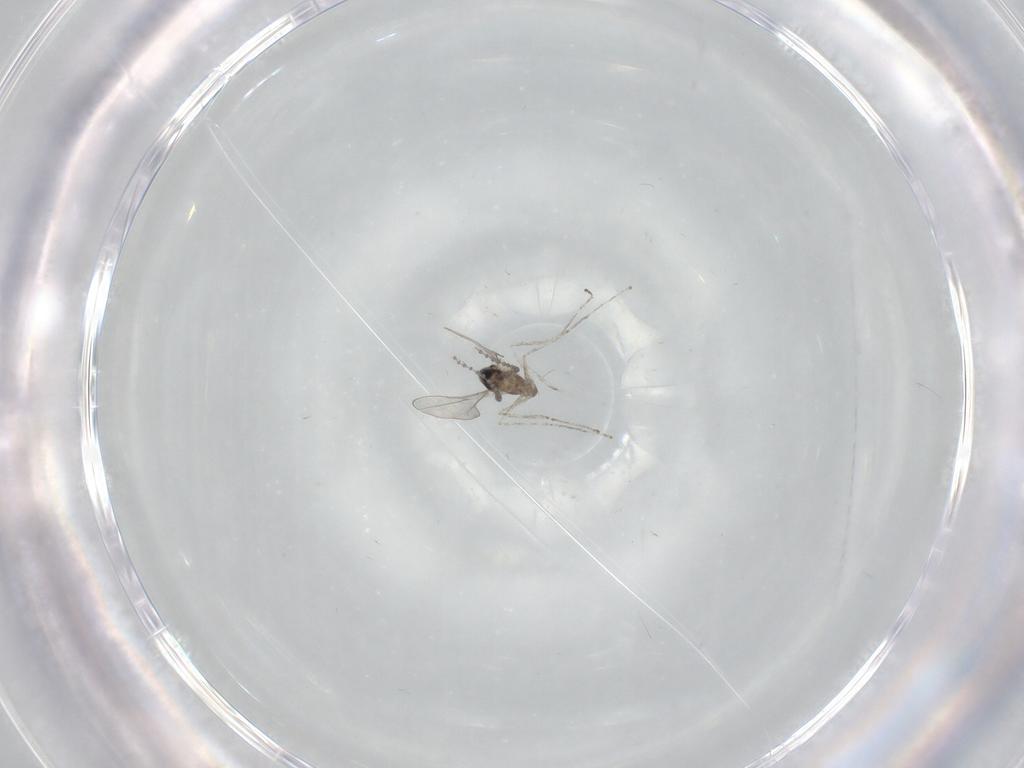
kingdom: Animalia
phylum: Arthropoda
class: Insecta
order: Diptera
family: Cecidomyiidae
